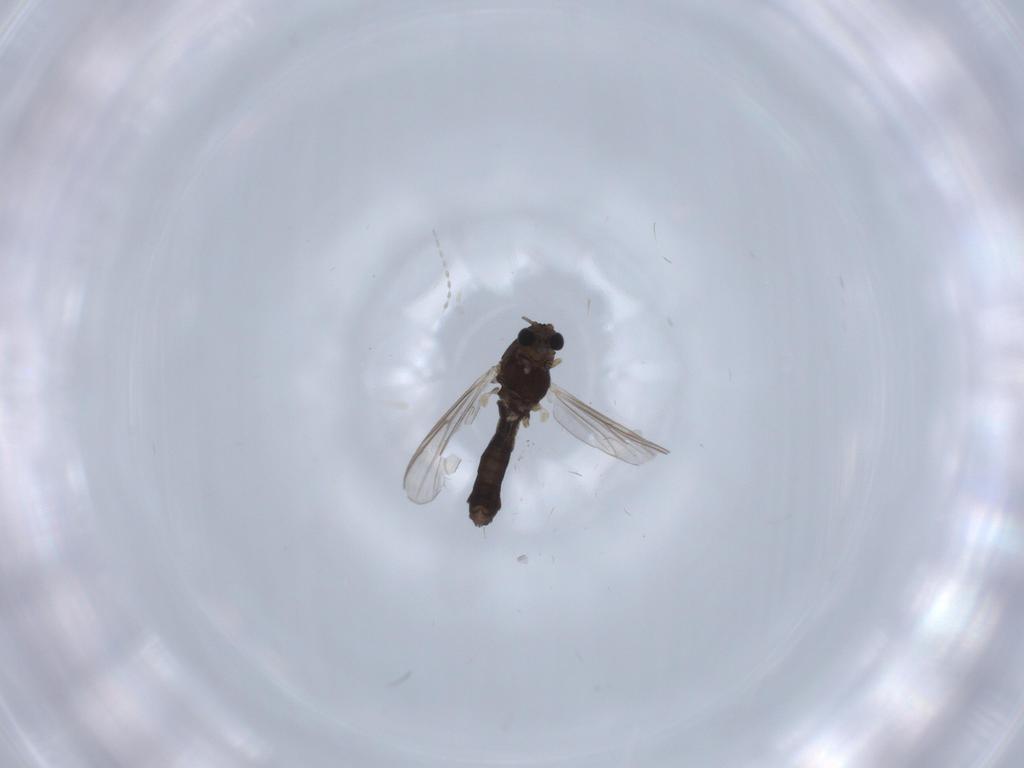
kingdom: Animalia
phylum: Arthropoda
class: Insecta
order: Diptera
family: Chironomidae
